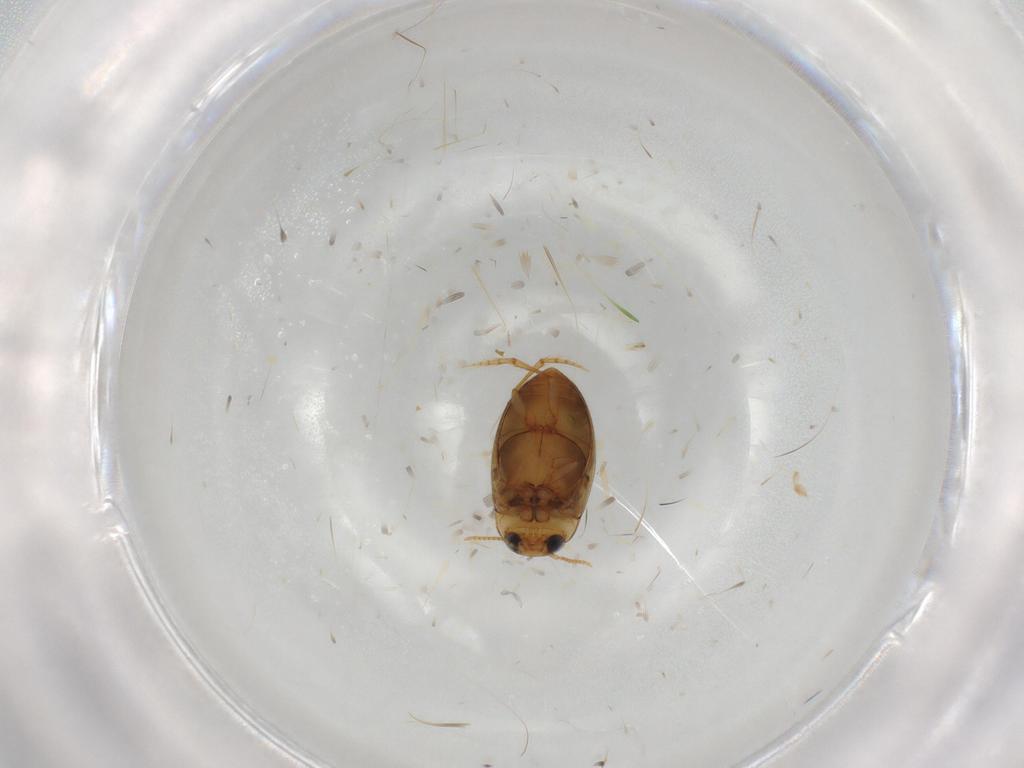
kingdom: Animalia
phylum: Arthropoda
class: Insecta
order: Coleoptera
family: Dytiscidae
